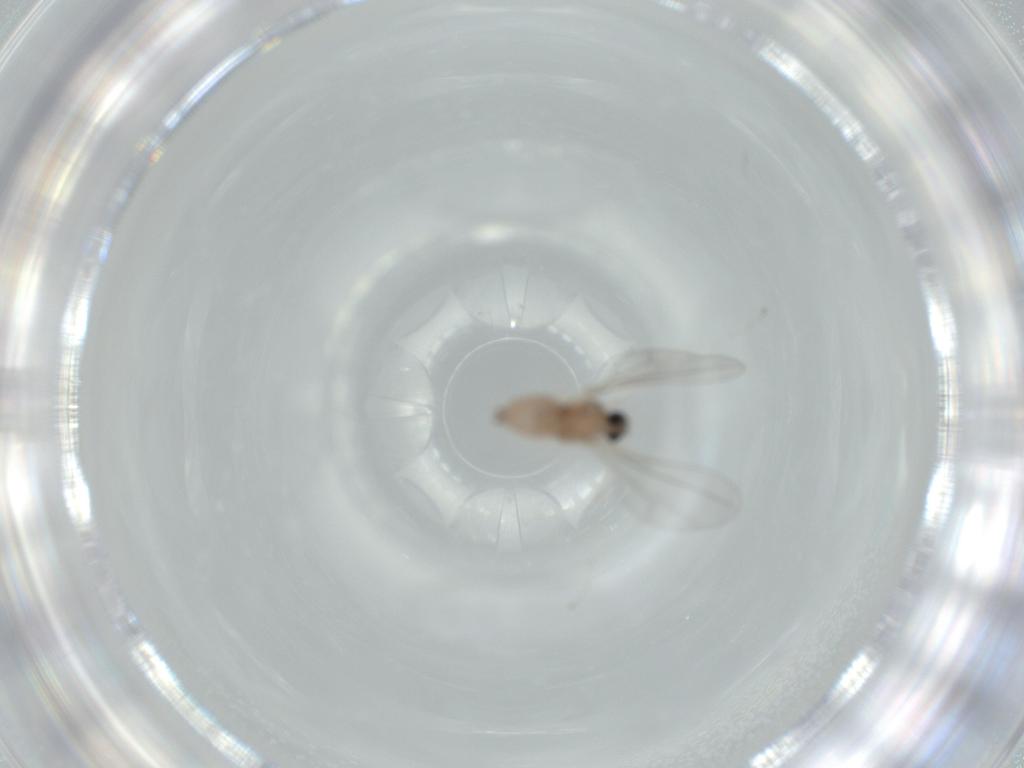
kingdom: Animalia
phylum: Arthropoda
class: Insecta
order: Diptera
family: Cecidomyiidae
